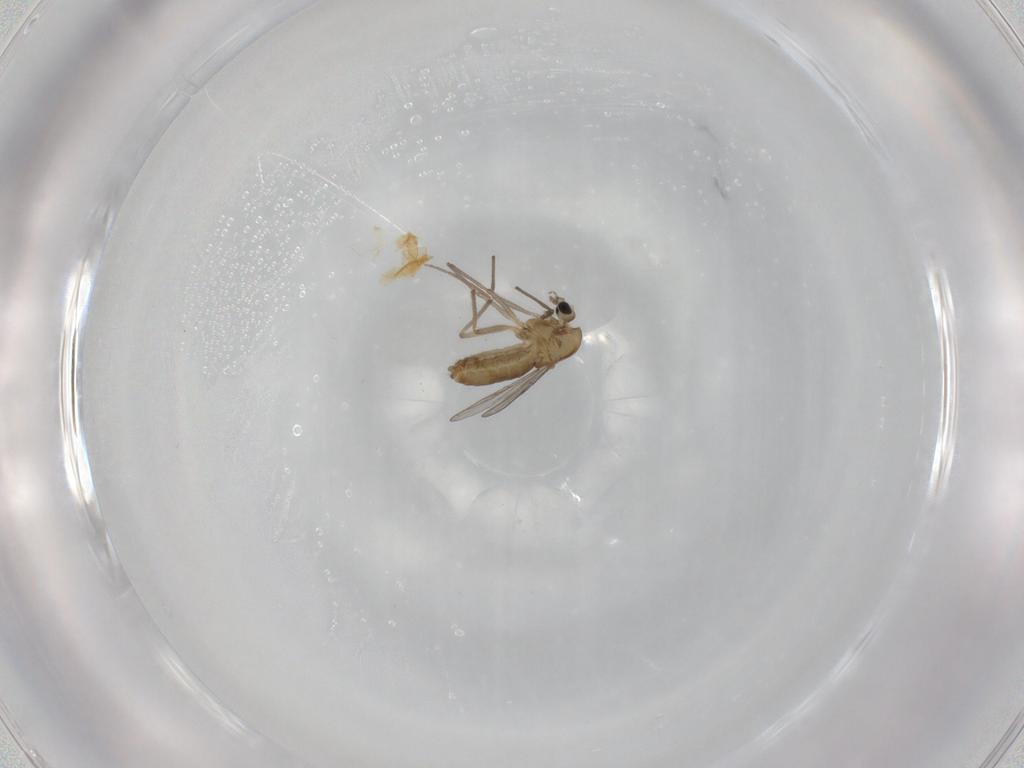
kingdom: Animalia
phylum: Arthropoda
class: Insecta
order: Diptera
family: Chironomidae
